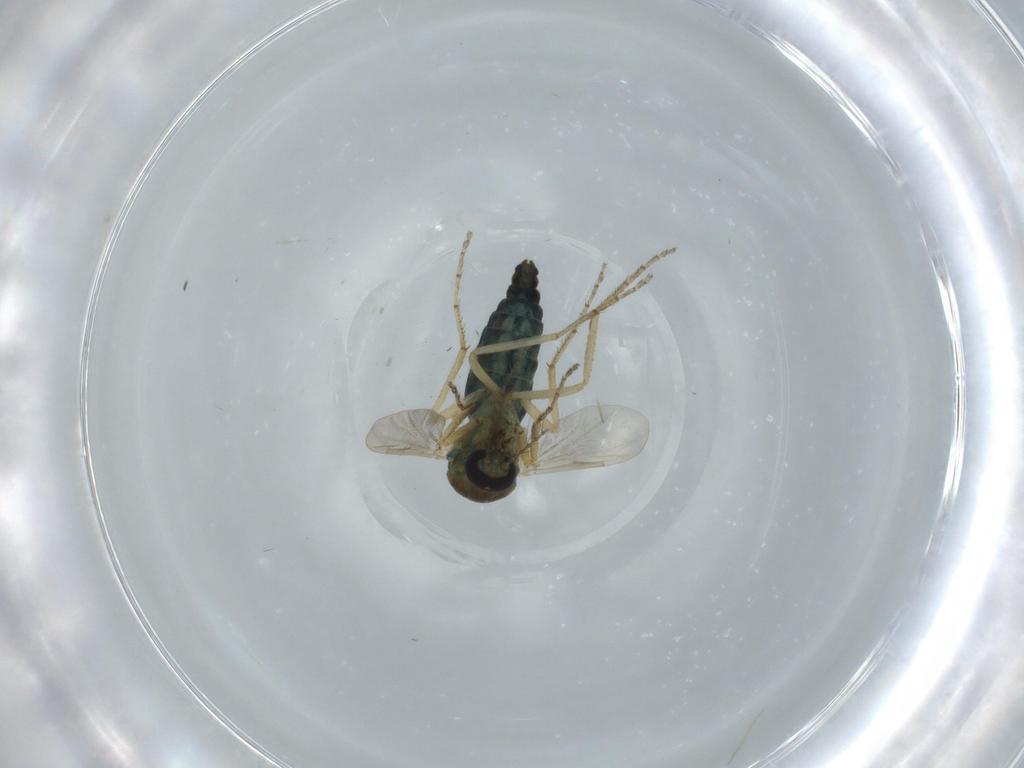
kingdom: Animalia
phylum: Arthropoda
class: Insecta
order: Diptera
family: Ceratopogonidae
